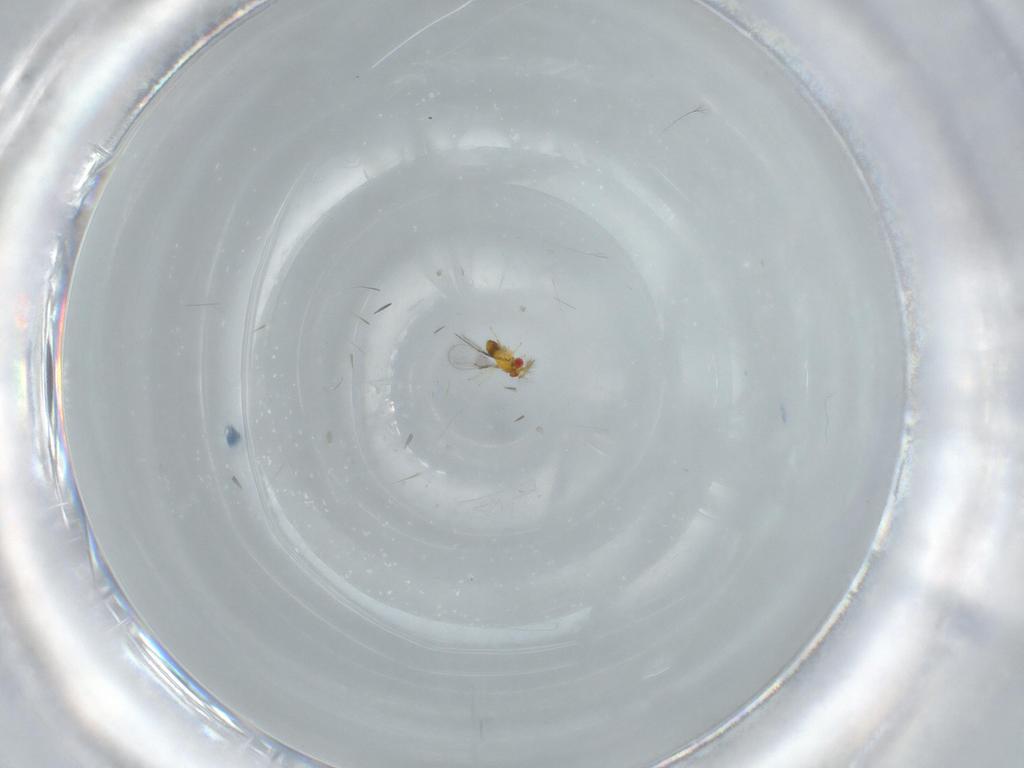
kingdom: Animalia
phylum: Arthropoda
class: Insecta
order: Hymenoptera
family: Trichogrammatidae
